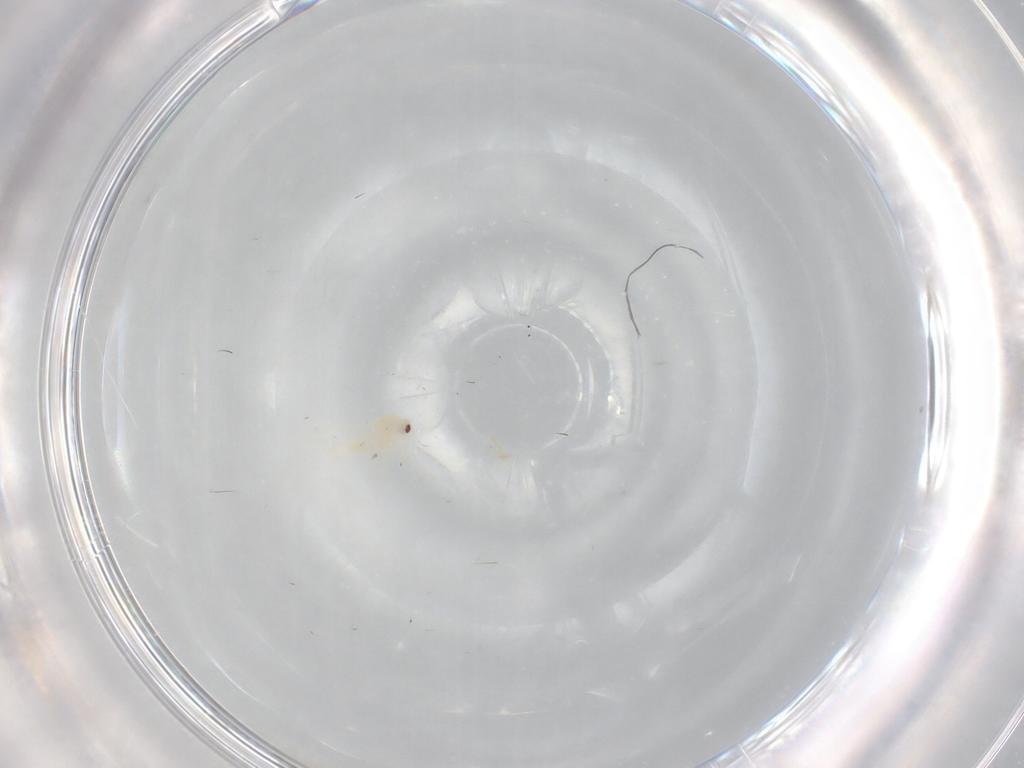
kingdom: Animalia
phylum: Arthropoda
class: Insecta
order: Hemiptera
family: Aleyrodidae
